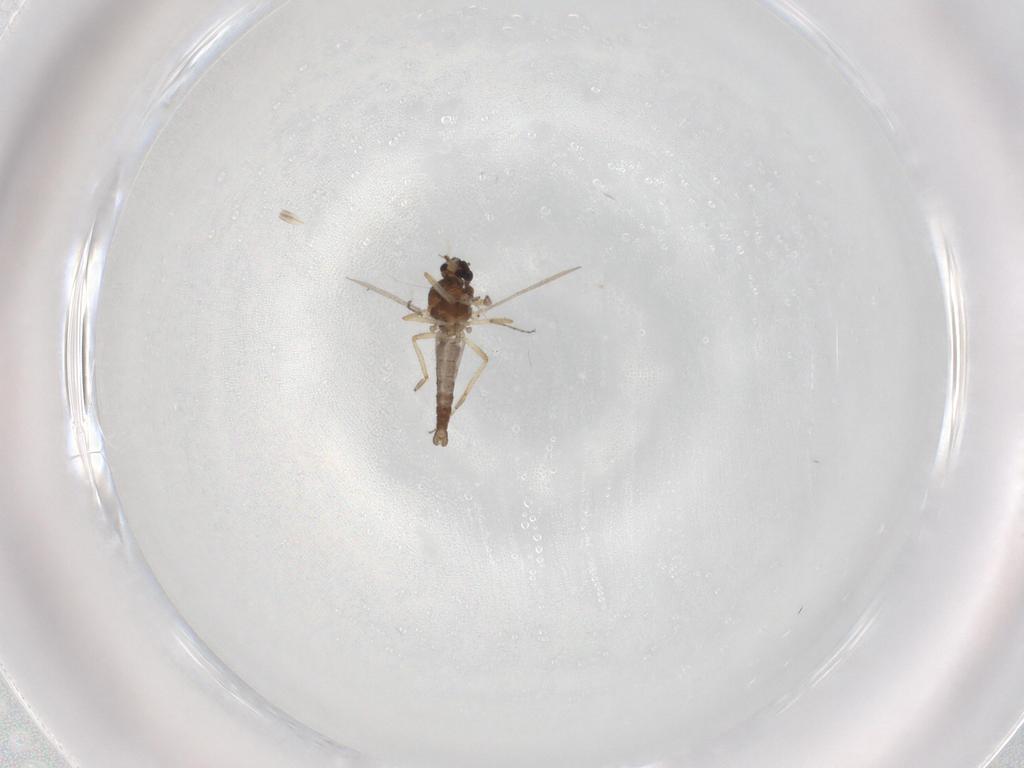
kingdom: Animalia
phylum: Arthropoda
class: Insecta
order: Diptera
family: Ceratopogonidae
